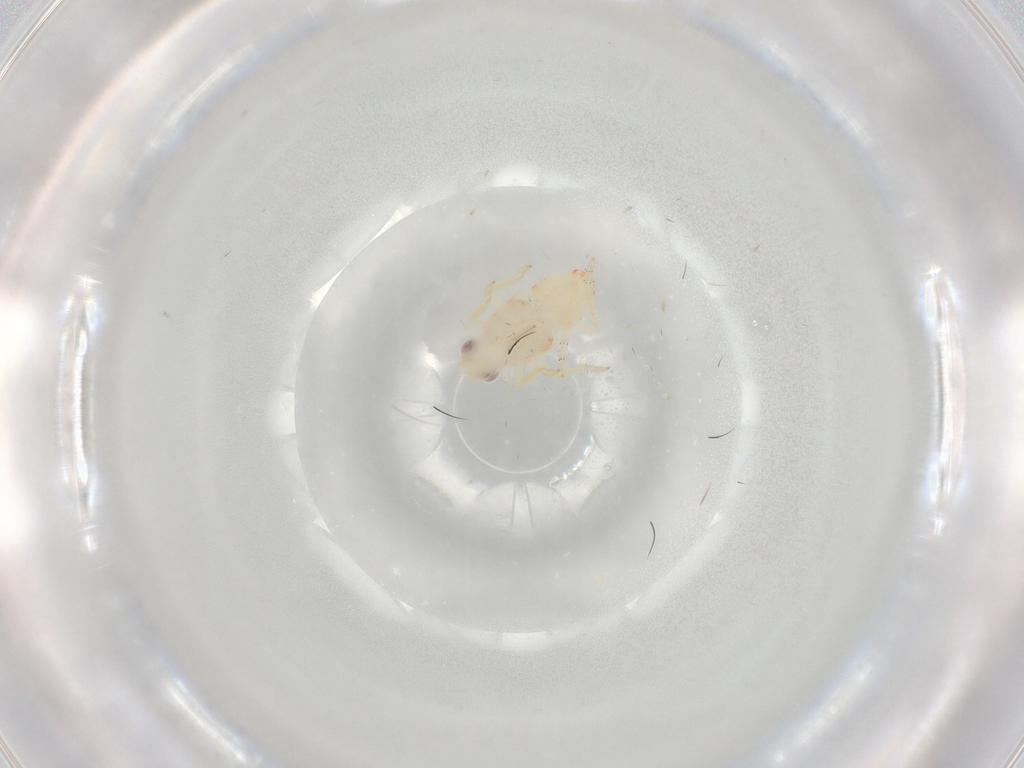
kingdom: Animalia
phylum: Arthropoda
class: Insecta
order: Hemiptera
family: Tropiduchidae
